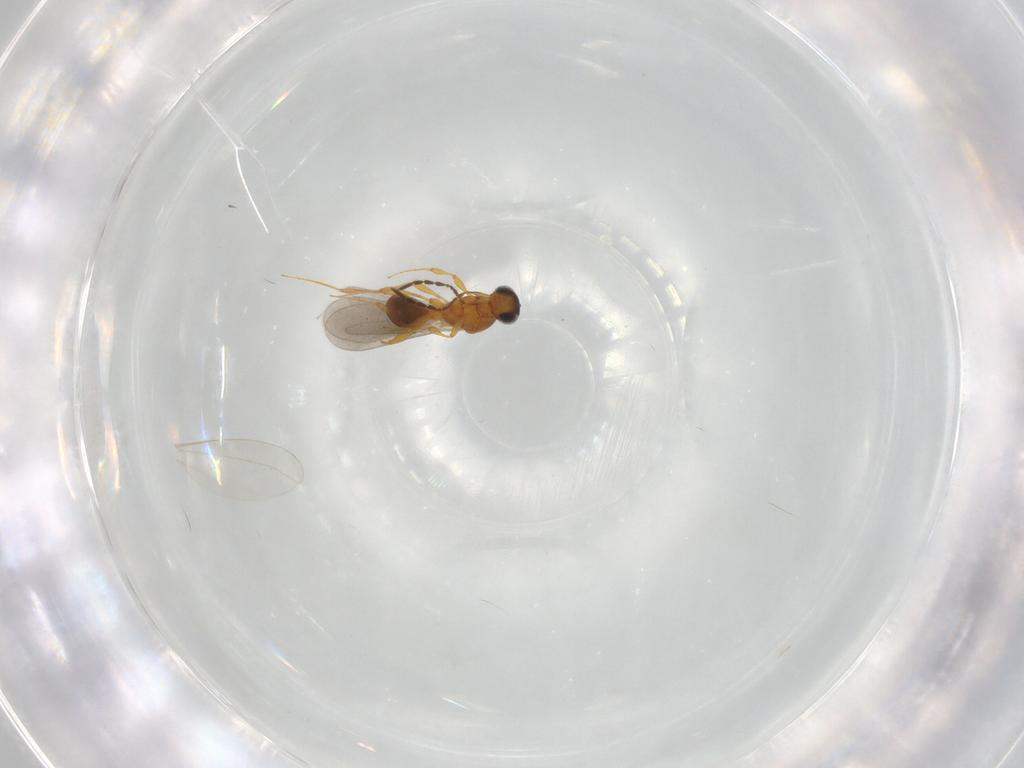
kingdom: Animalia
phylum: Arthropoda
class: Insecta
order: Hymenoptera
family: Platygastridae
